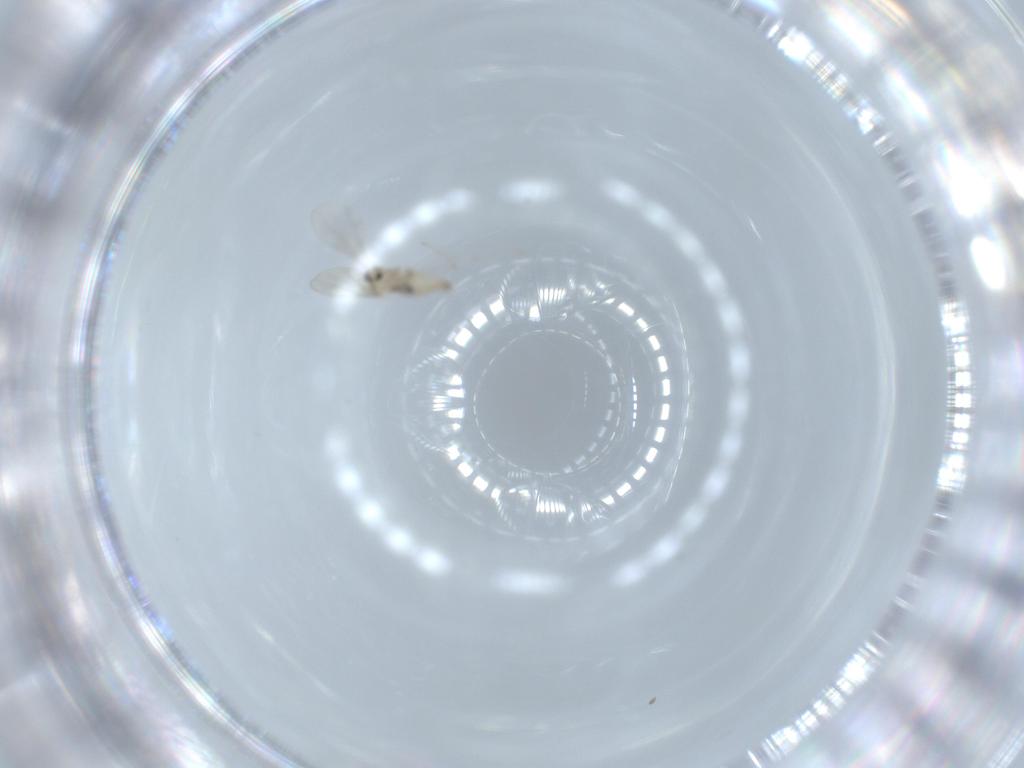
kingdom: Animalia
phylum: Arthropoda
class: Insecta
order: Diptera
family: Cecidomyiidae
